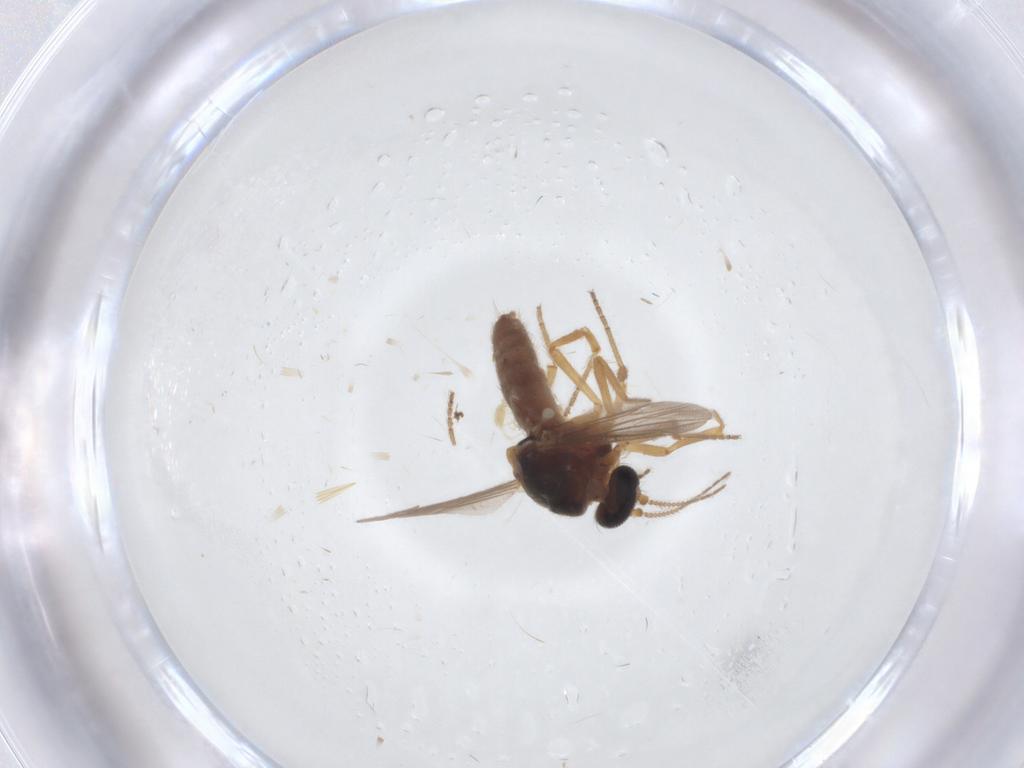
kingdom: Animalia
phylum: Arthropoda
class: Insecta
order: Diptera
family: Ceratopogonidae
